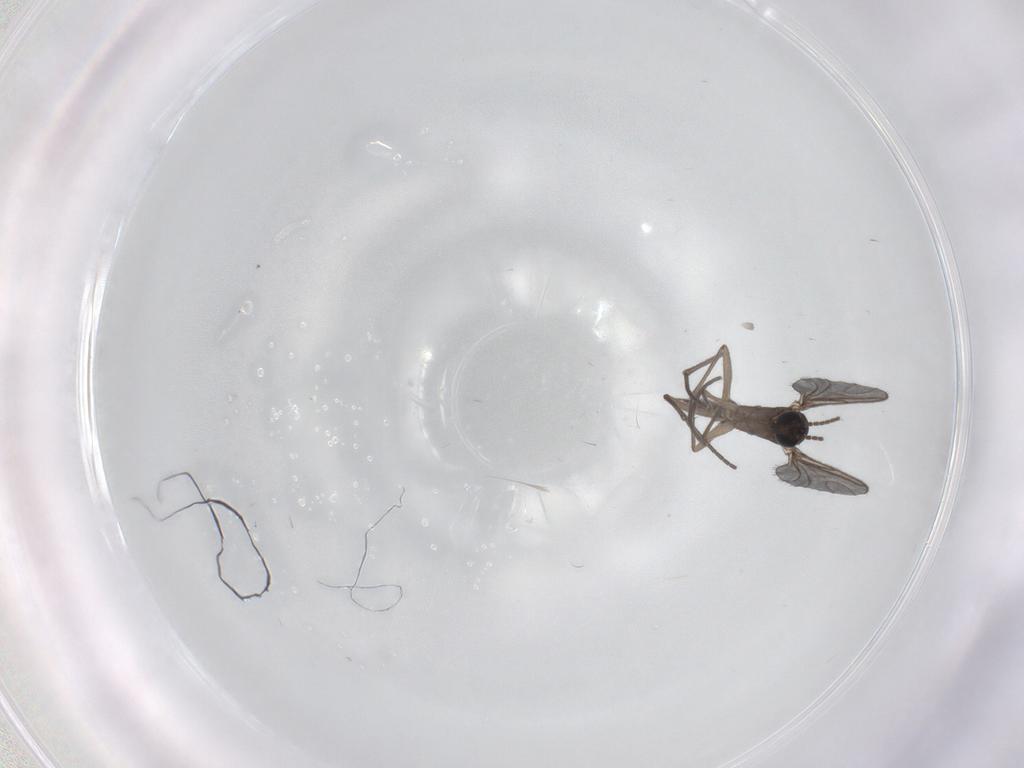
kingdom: Animalia
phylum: Arthropoda
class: Insecta
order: Diptera
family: Sciaridae
